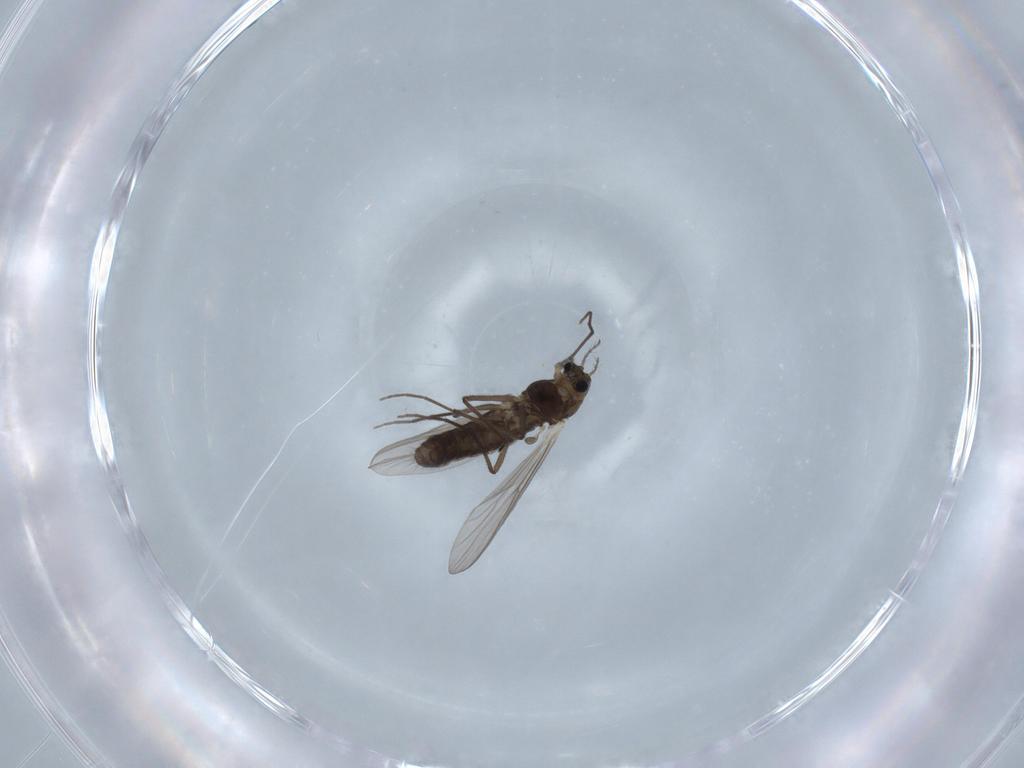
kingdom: Animalia
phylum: Arthropoda
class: Insecta
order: Diptera
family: Chironomidae
